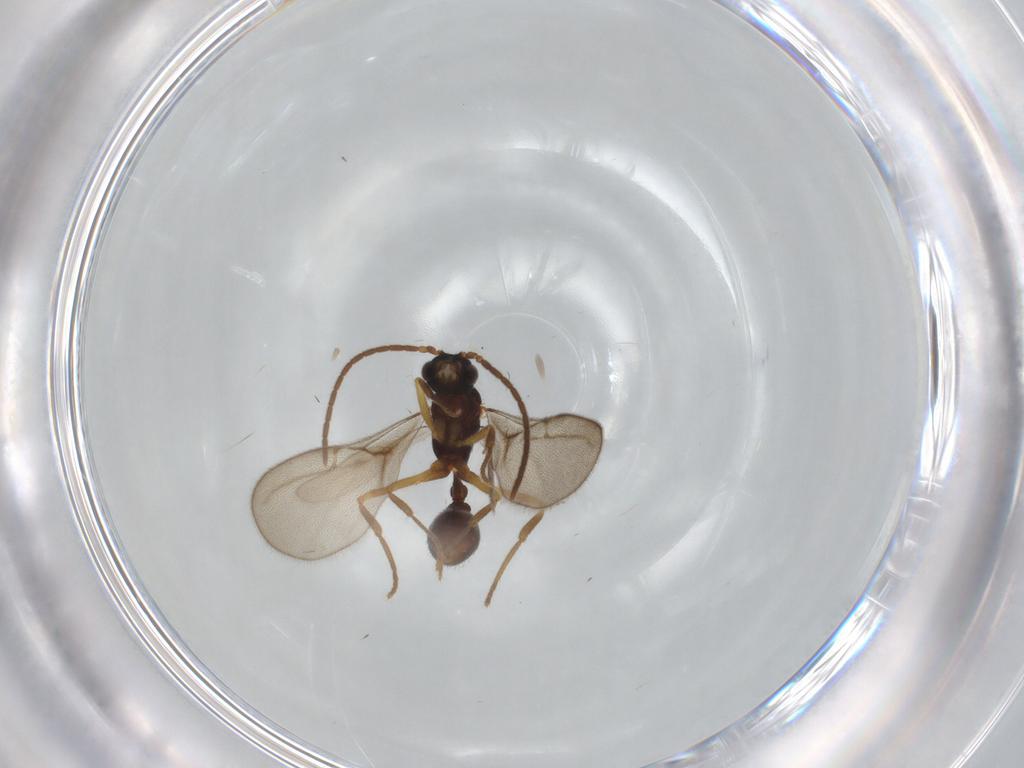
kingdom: Animalia
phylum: Arthropoda
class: Insecta
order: Hymenoptera
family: Formicidae
